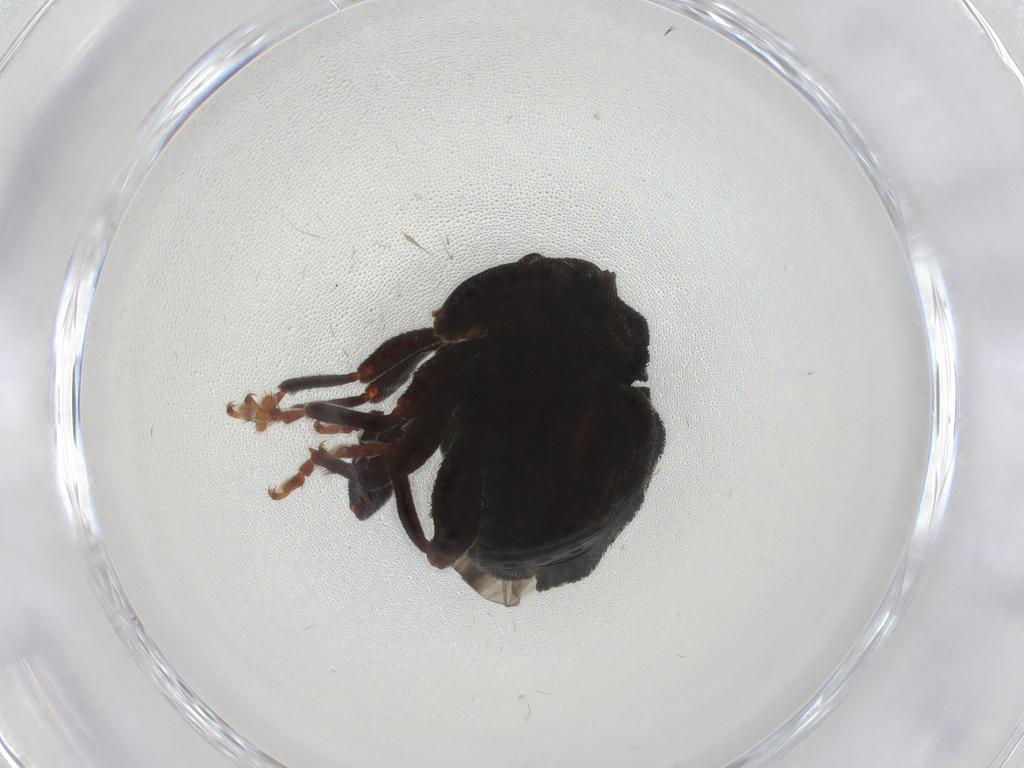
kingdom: Animalia
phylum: Arthropoda
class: Insecta
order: Coleoptera
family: Curculionidae
